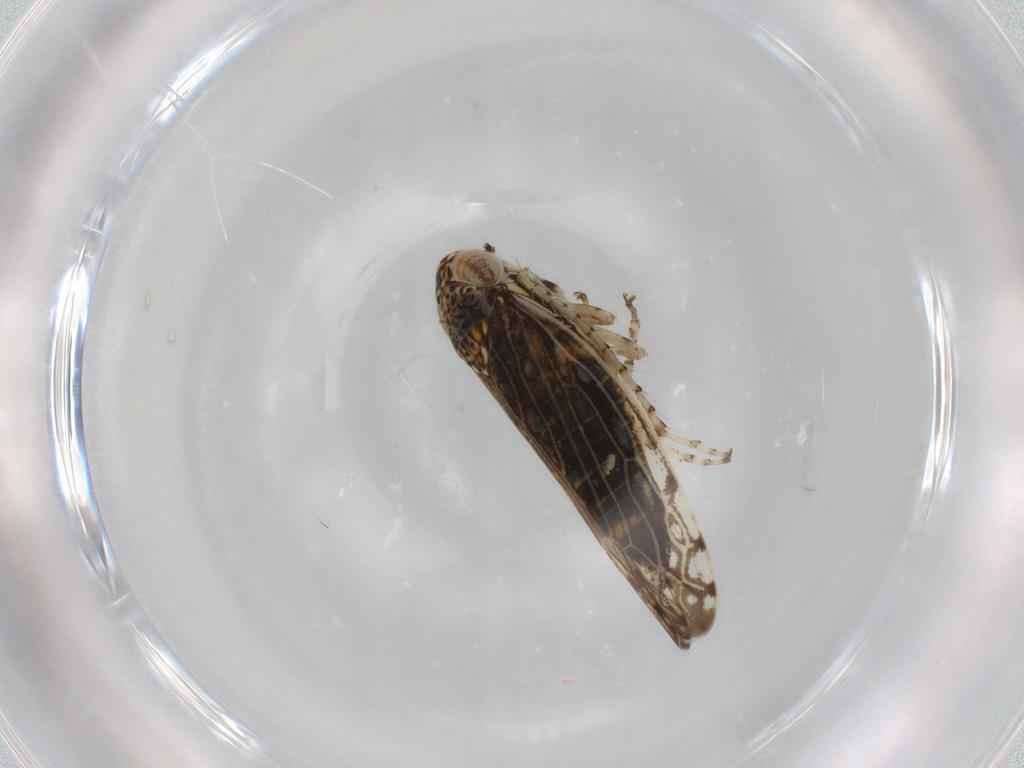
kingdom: Animalia
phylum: Arthropoda
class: Insecta
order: Hemiptera
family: Cicadellidae
